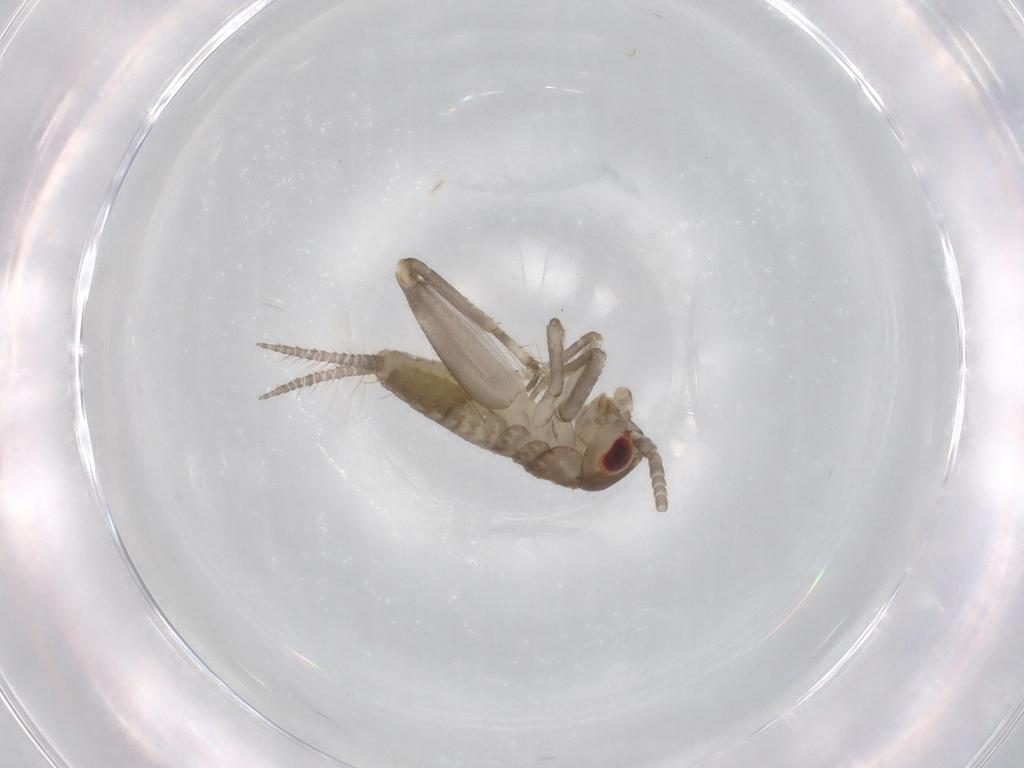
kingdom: Animalia
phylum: Arthropoda
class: Insecta
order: Orthoptera
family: Gryllidae
